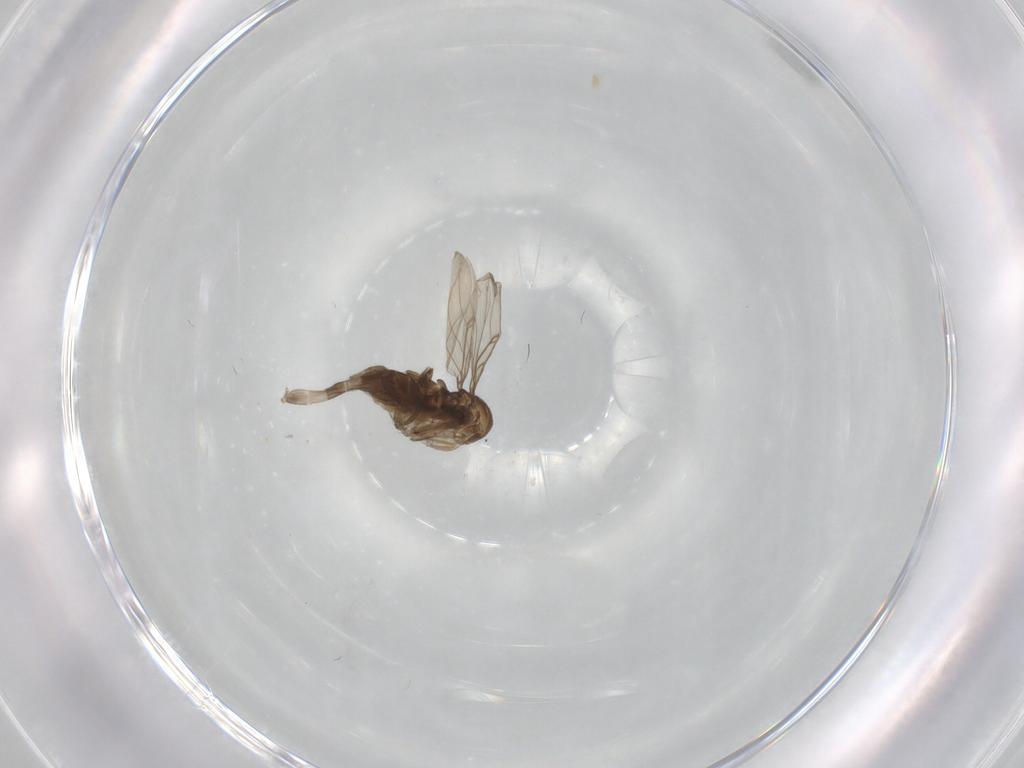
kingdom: Animalia
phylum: Arthropoda
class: Insecta
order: Diptera
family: Tabanidae
